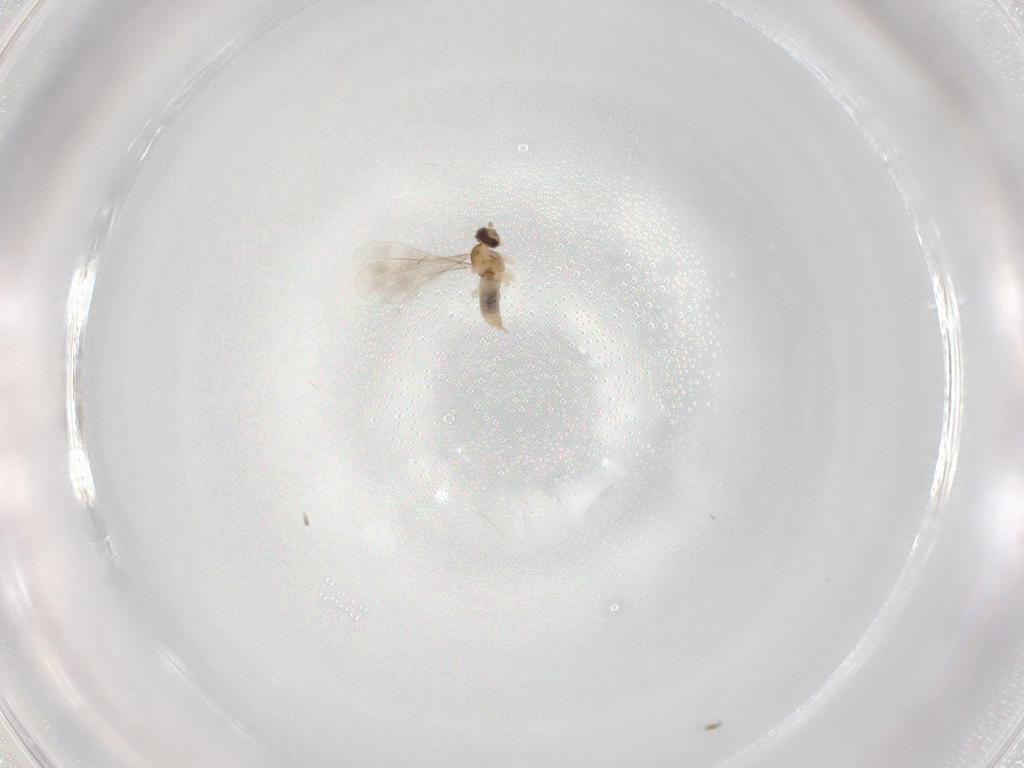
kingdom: Animalia
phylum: Arthropoda
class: Insecta
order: Diptera
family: Cecidomyiidae
